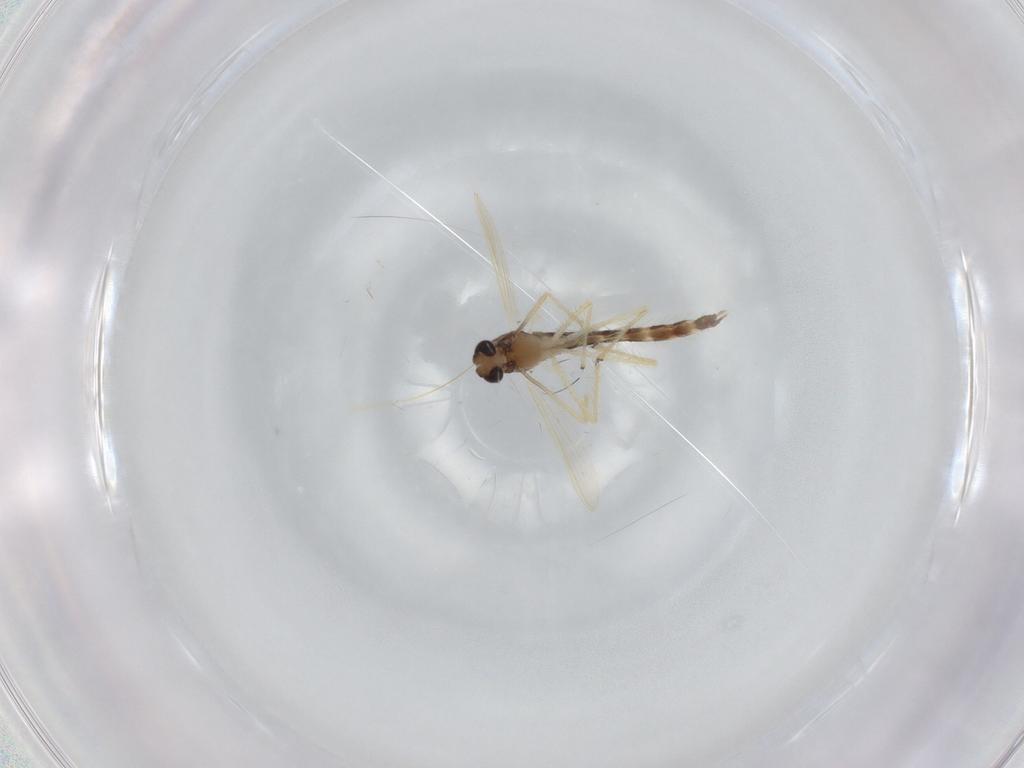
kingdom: Animalia
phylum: Arthropoda
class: Insecta
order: Diptera
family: Chironomidae
